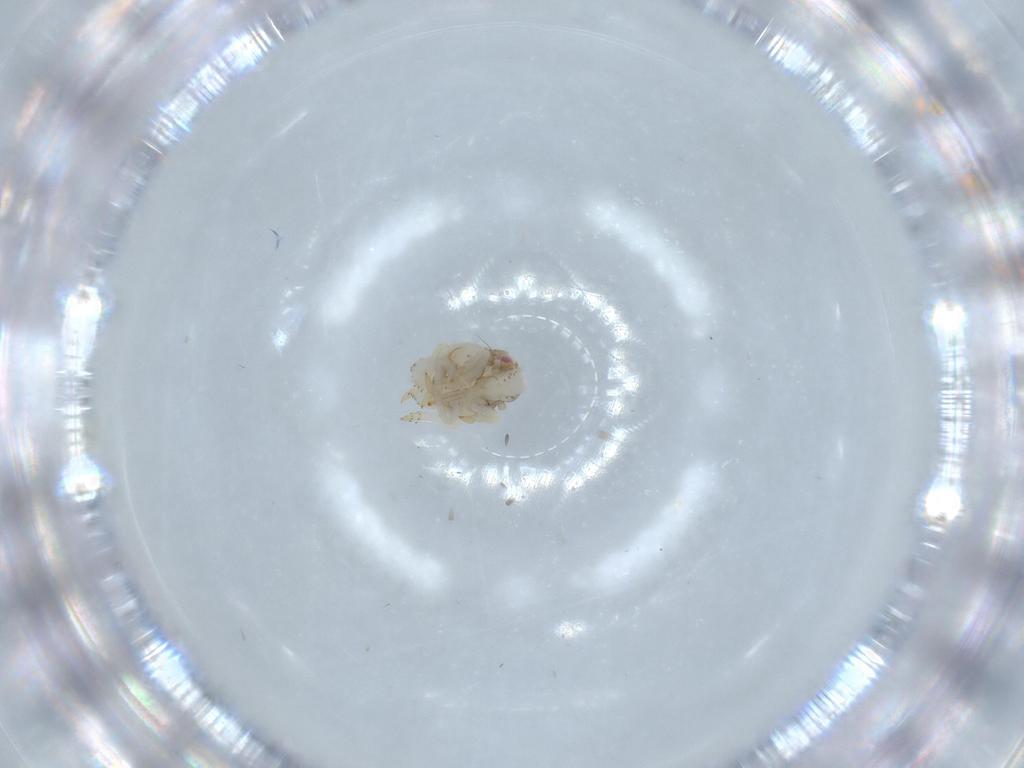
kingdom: Animalia
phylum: Arthropoda
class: Insecta
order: Hemiptera
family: Acanaloniidae
